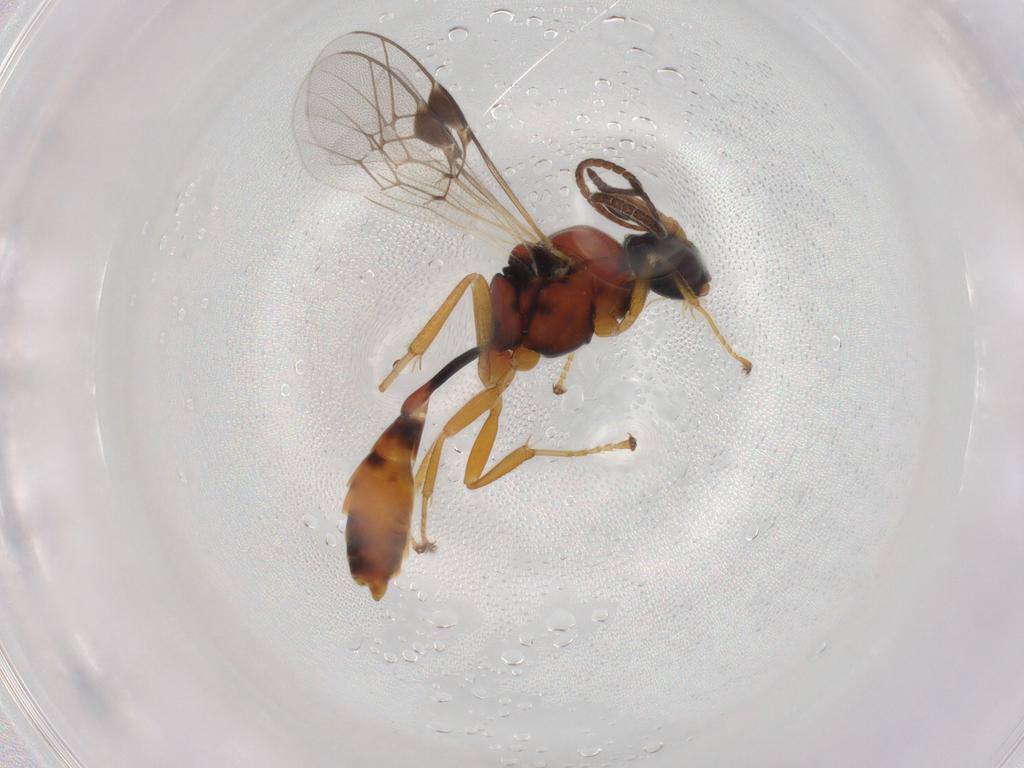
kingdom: Animalia
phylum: Arthropoda
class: Insecta
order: Hymenoptera
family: Ichneumonidae
